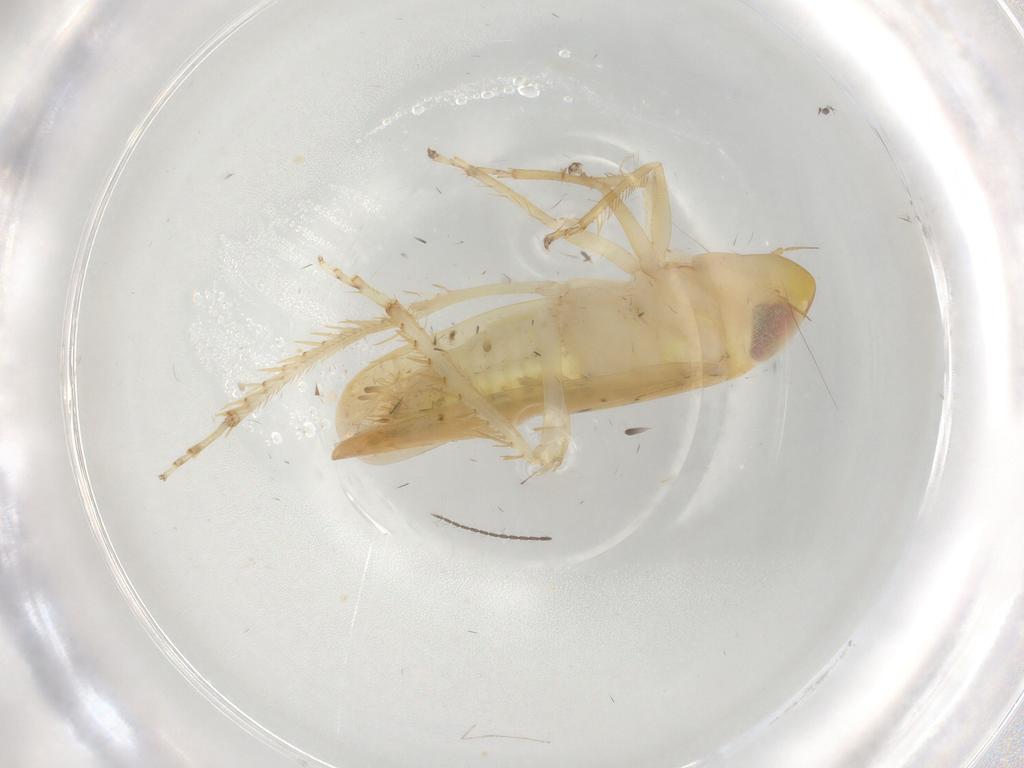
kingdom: Animalia
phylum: Arthropoda
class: Insecta
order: Hemiptera
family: Cicadellidae
